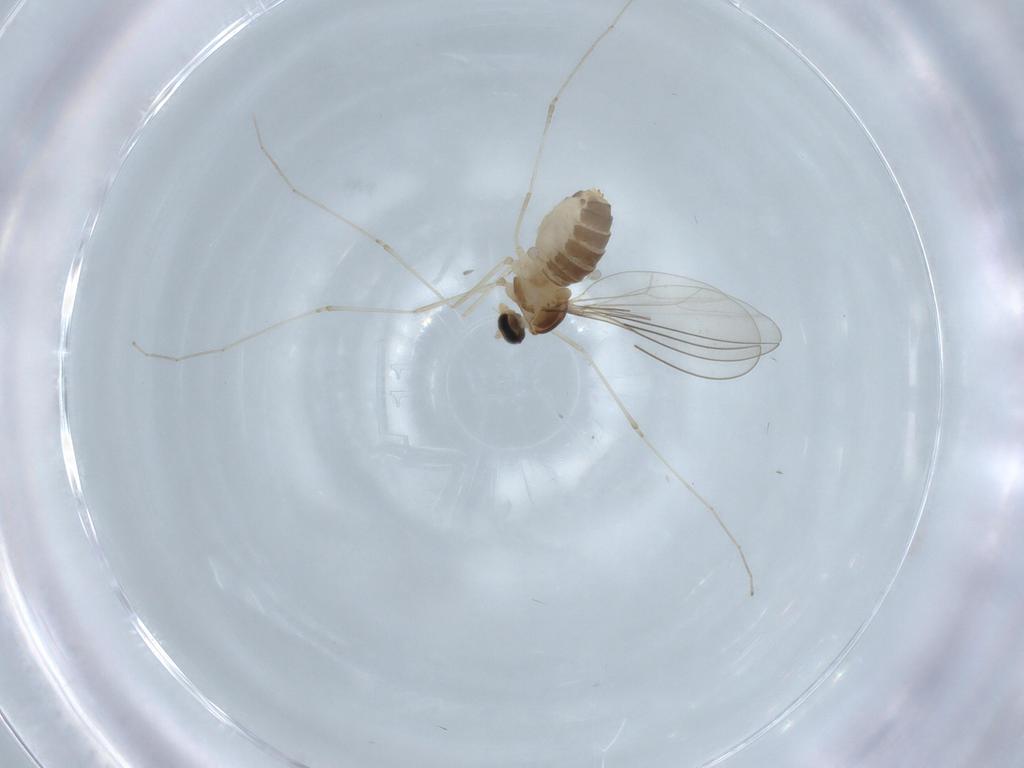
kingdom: Animalia
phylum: Arthropoda
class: Insecta
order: Diptera
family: Cecidomyiidae
